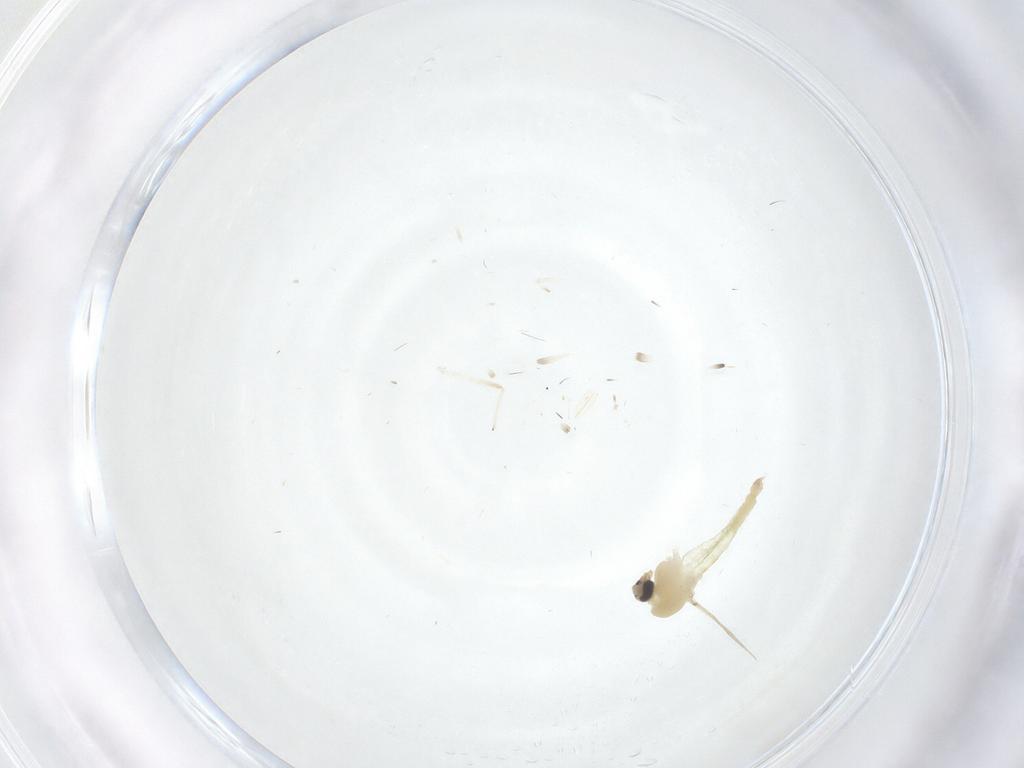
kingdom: Animalia
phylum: Arthropoda
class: Insecta
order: Diptera
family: Chironomidae
